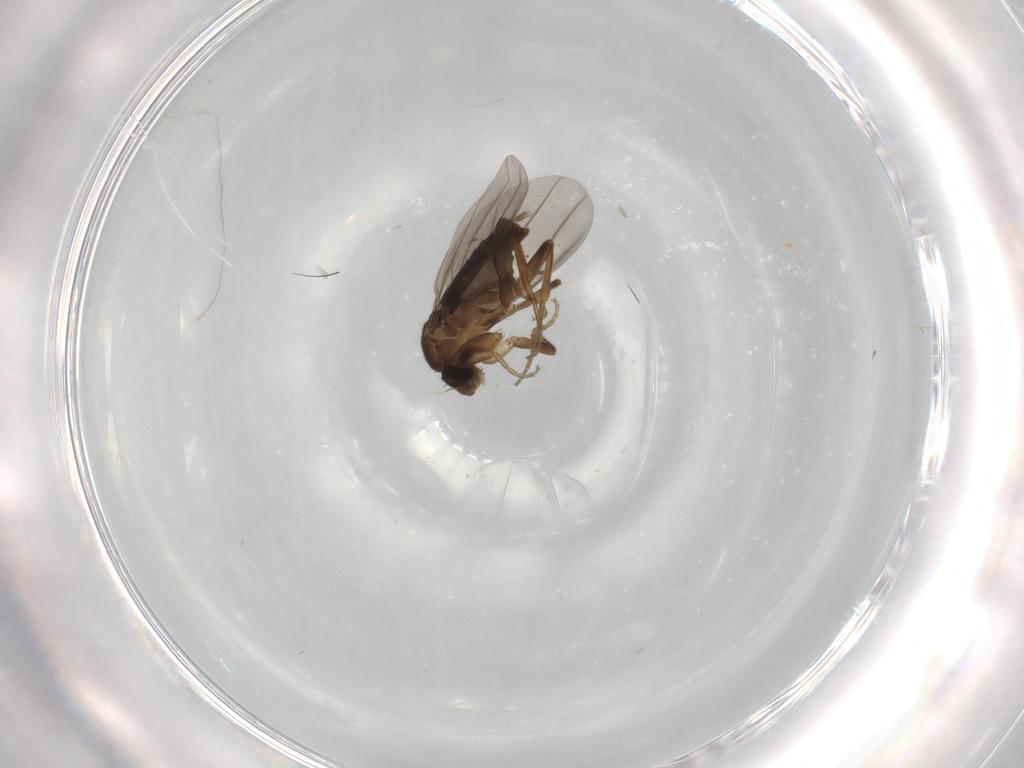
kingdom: Animalia
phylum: Arthropoda
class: Insecta
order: Diptera
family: Phoridae
